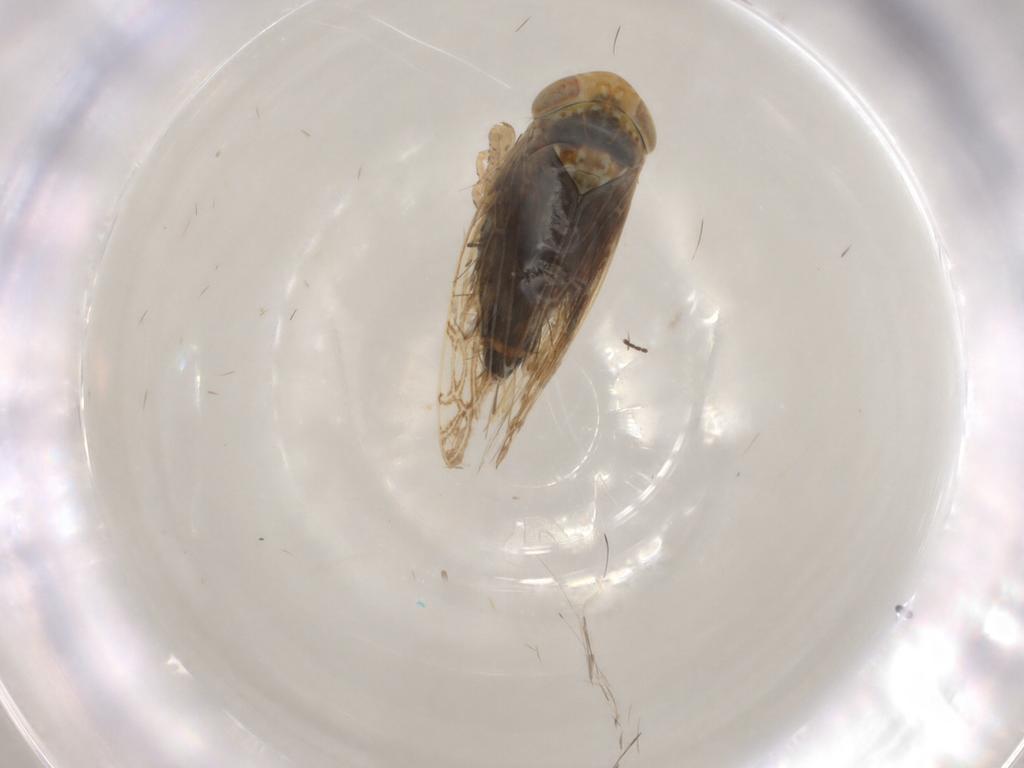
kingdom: Animalia
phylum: Arthropoda
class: Insecta
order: Hemiptera
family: Cicadellidae
